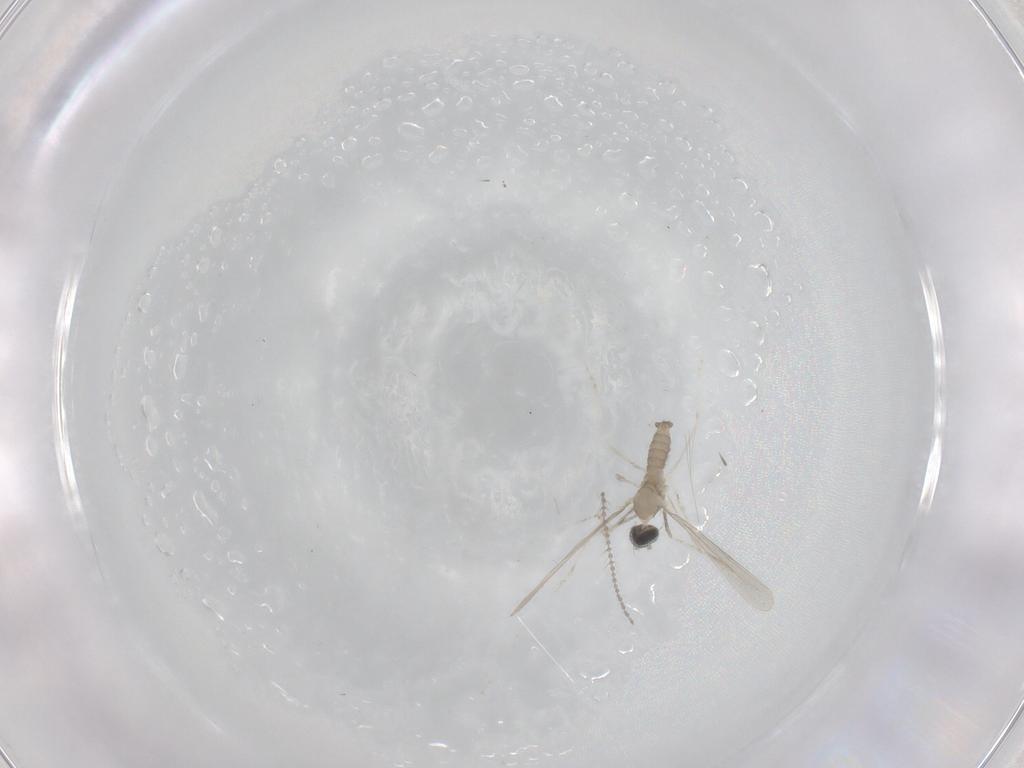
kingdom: Animalia
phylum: Arthropoda
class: Insecta
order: Diptera
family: Cecidomyiidae
